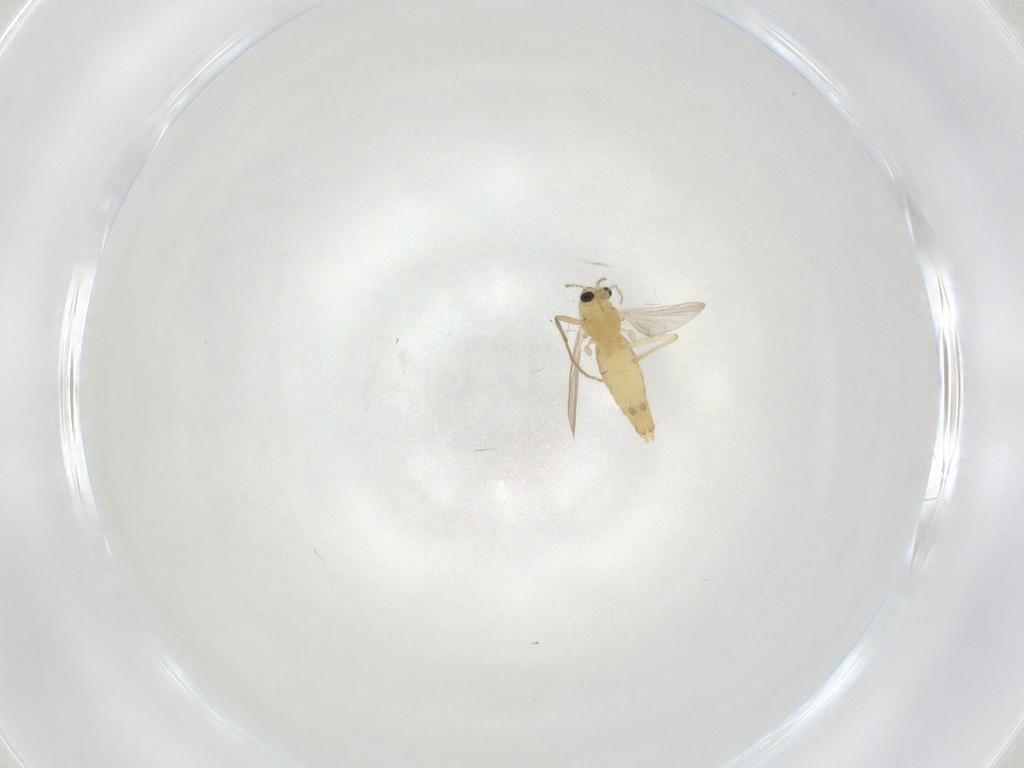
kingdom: Animalia
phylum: Arthropoda
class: Insecta
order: Diptera
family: Chironomidae
